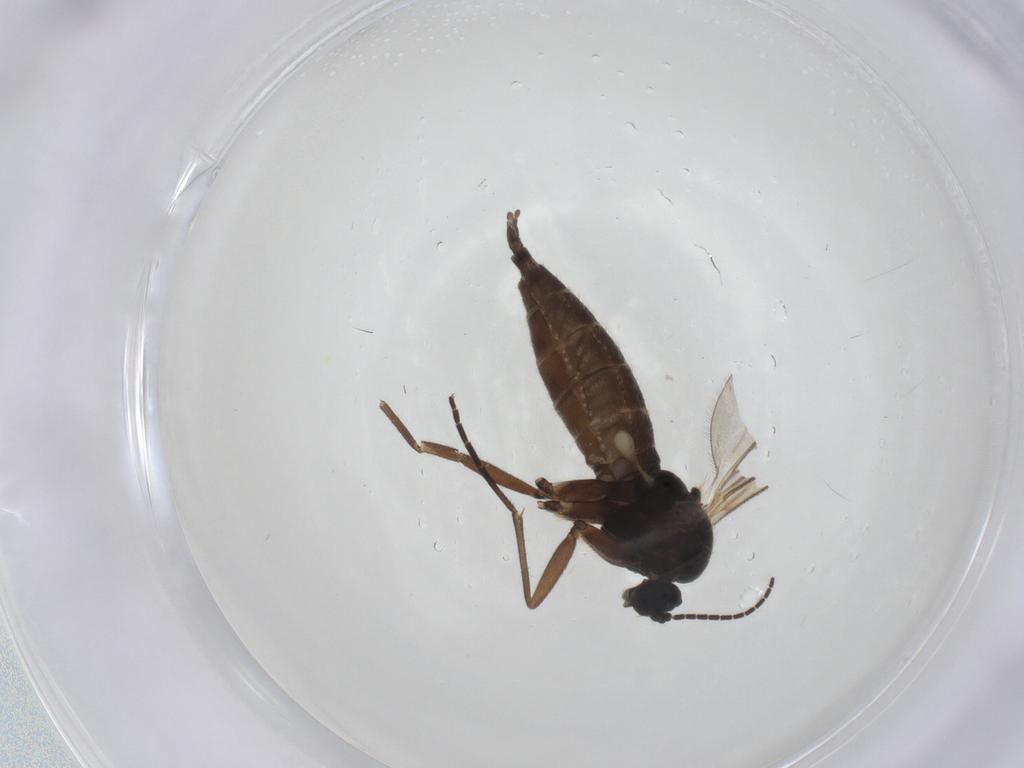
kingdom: Animalia
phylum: Arthropoda
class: Insecta
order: Diptera
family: Sciaridae
